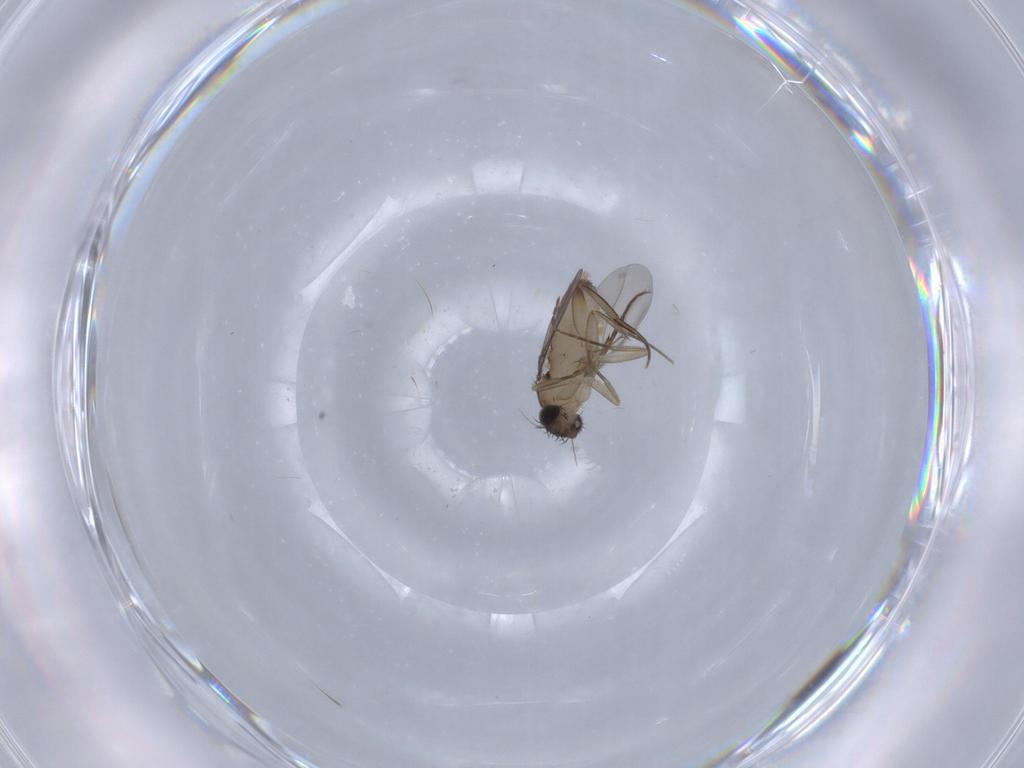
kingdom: Animalia
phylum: Arthropoda
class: Insecta
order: Diptera
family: Phoridae
